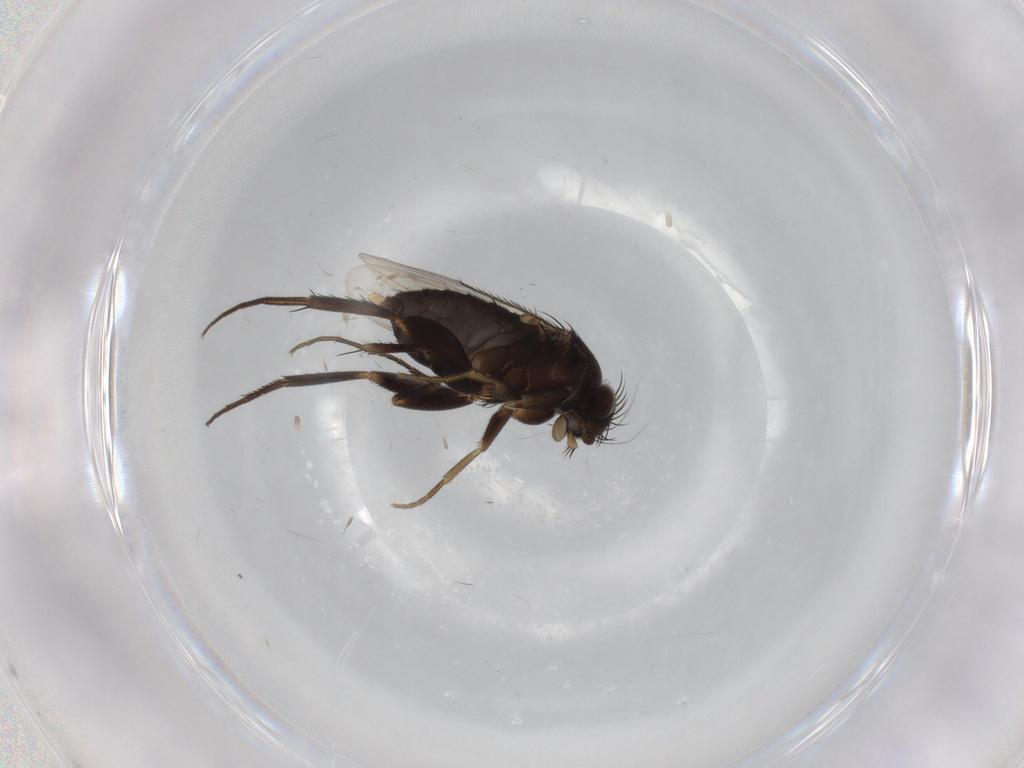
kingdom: Animalia
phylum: Arthropoda
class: Insecta
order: Diptera
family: Phoridae
